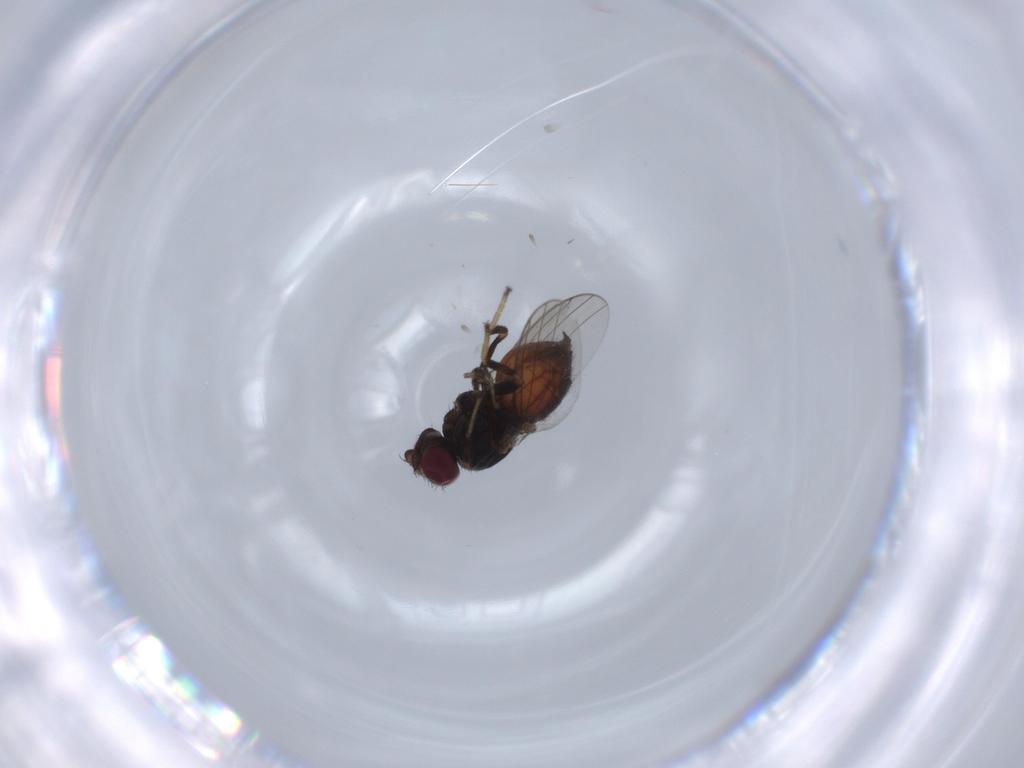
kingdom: Animalia
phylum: Arthropoda
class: Insecta
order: Diptera
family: Chloropidae
